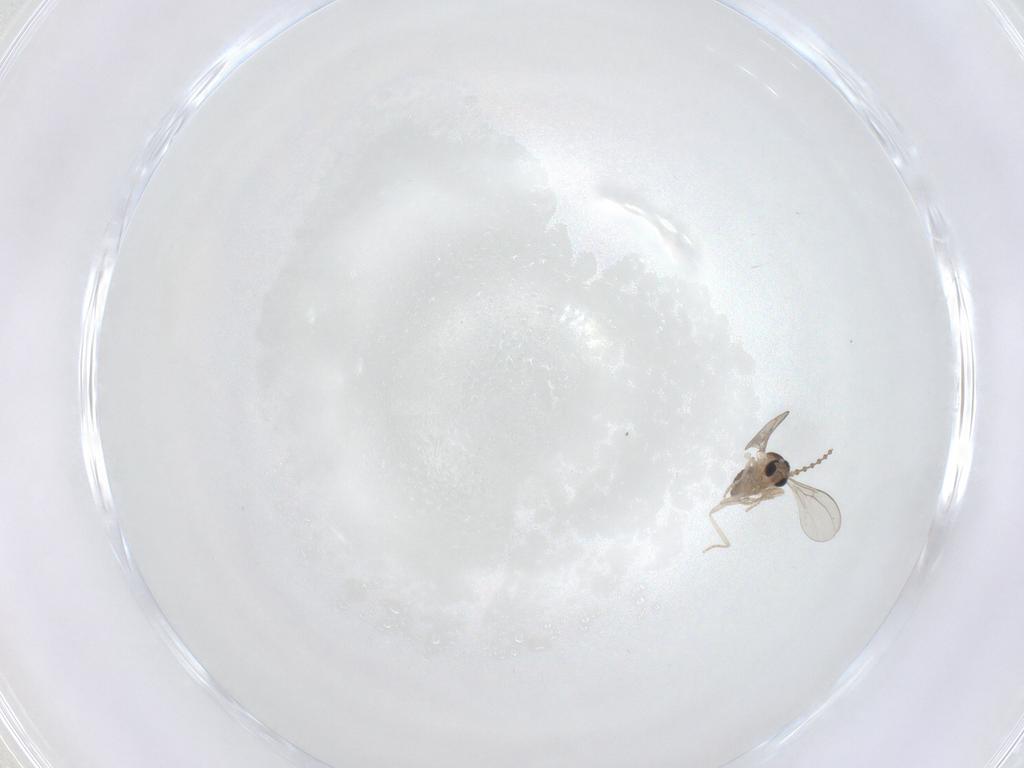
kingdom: Animalia
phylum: Arthropoda
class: Insecta
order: Diptera
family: Cecidomyiidae
